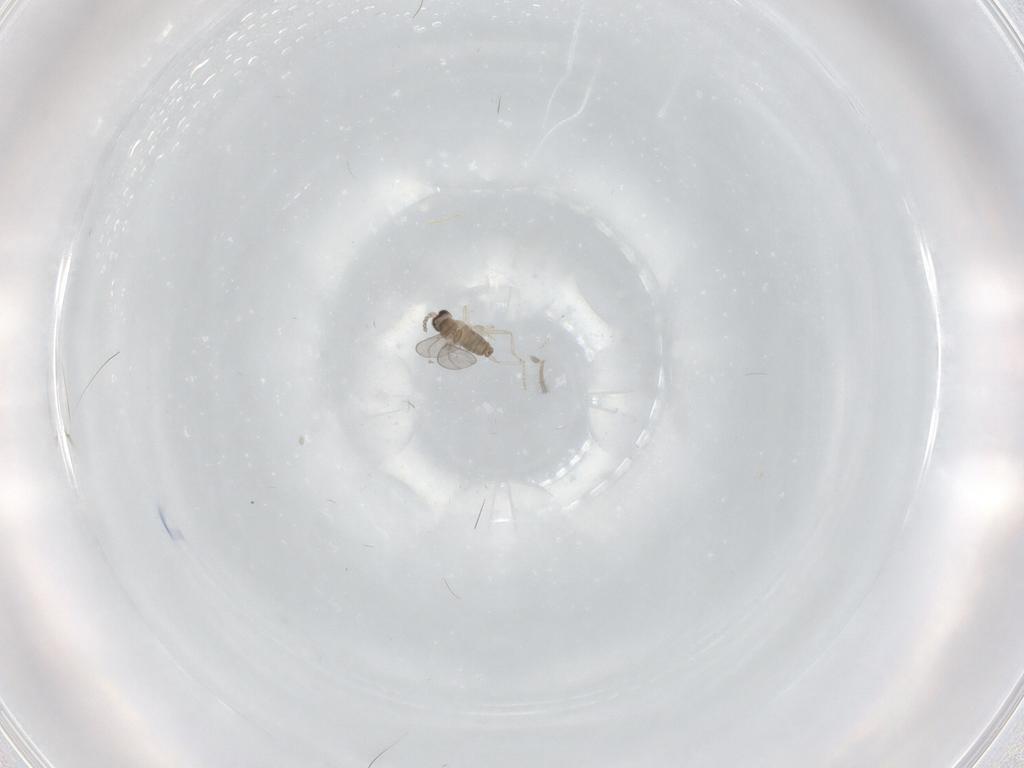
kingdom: Animalia
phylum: Arthropoda
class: Insecta
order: Diptera
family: Cecidomyiidae
